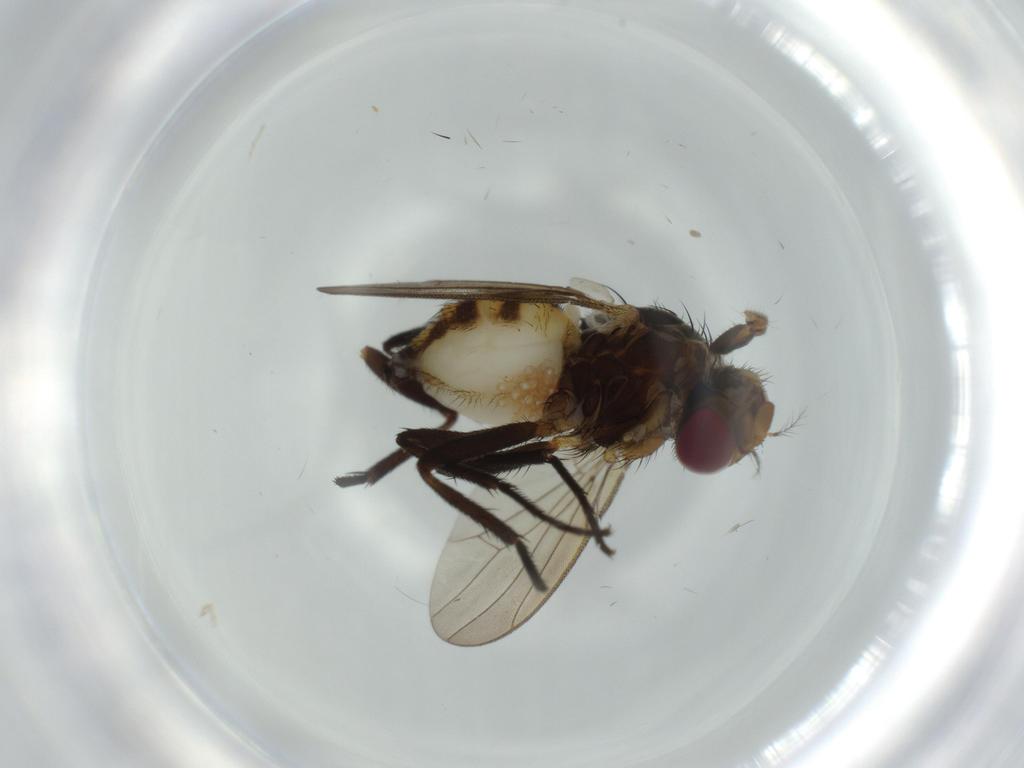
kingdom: Animalia
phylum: Arthropoda
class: Insecta
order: Diptera
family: Anthomyiidae
